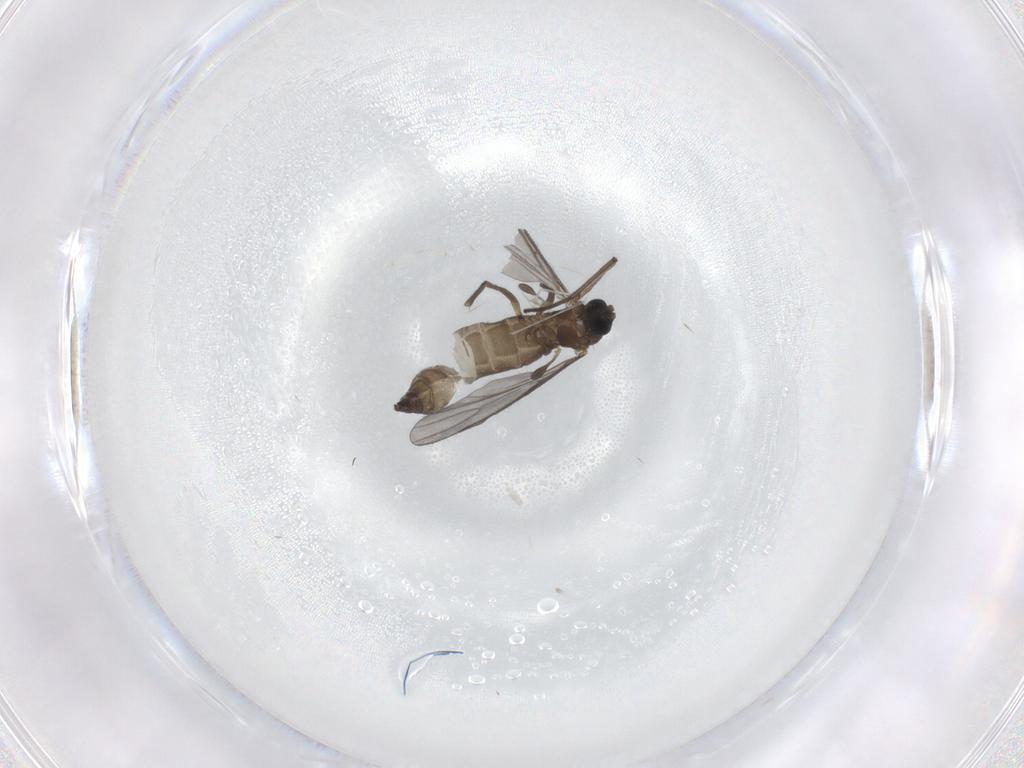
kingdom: Animalia
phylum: Arthropoda
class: Insecta
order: Diptera
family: Sciaridae
